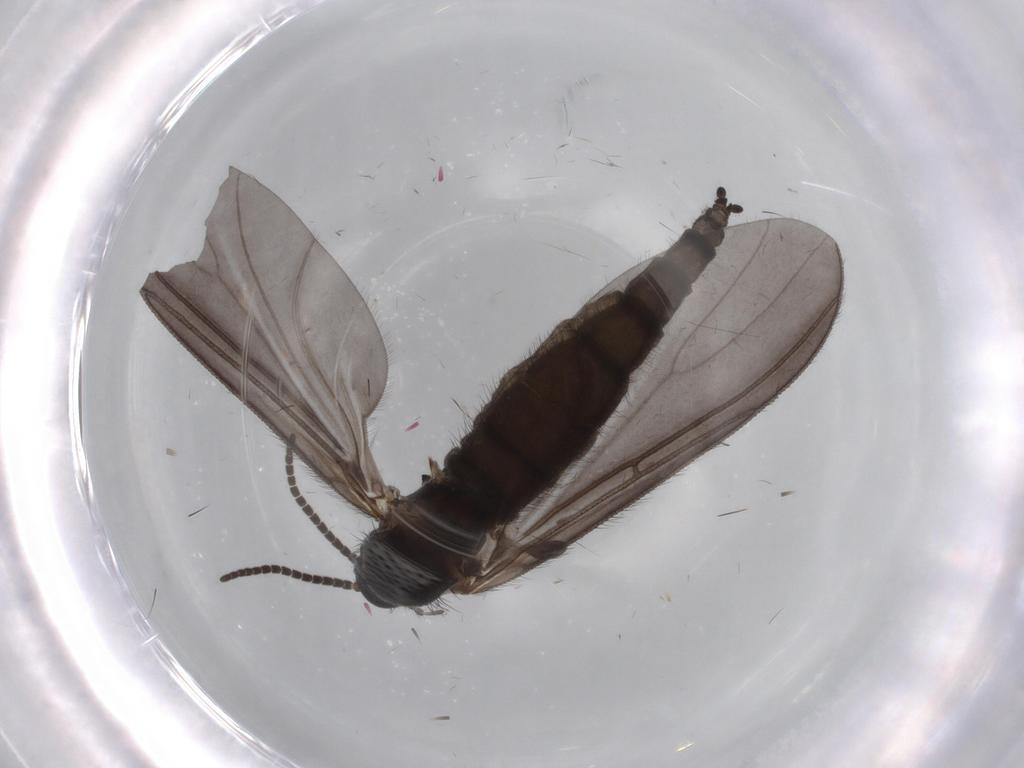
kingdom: Animalia
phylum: Arthropoda
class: Insecta
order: Diptera
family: Sciaridae
